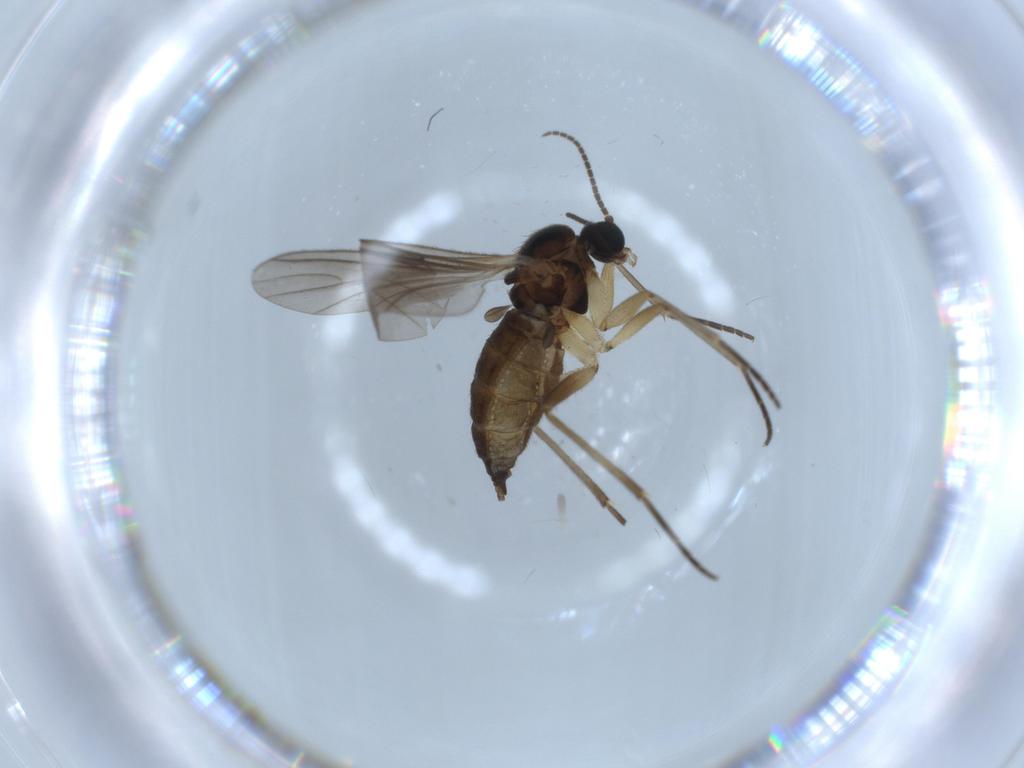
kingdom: Animalia
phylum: Arthropoda
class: Insecta
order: Diptera
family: Sciaridae
